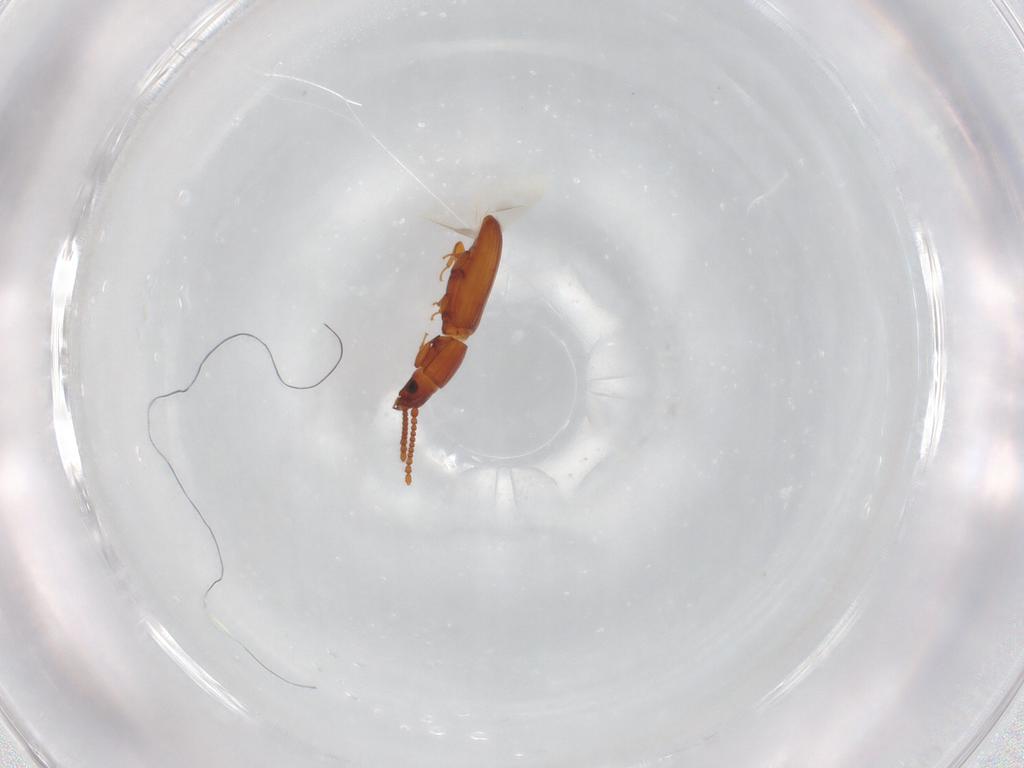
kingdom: Animalia
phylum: Arthropoda
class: Insecta
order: Coleoptera
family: Laemophloeidae
